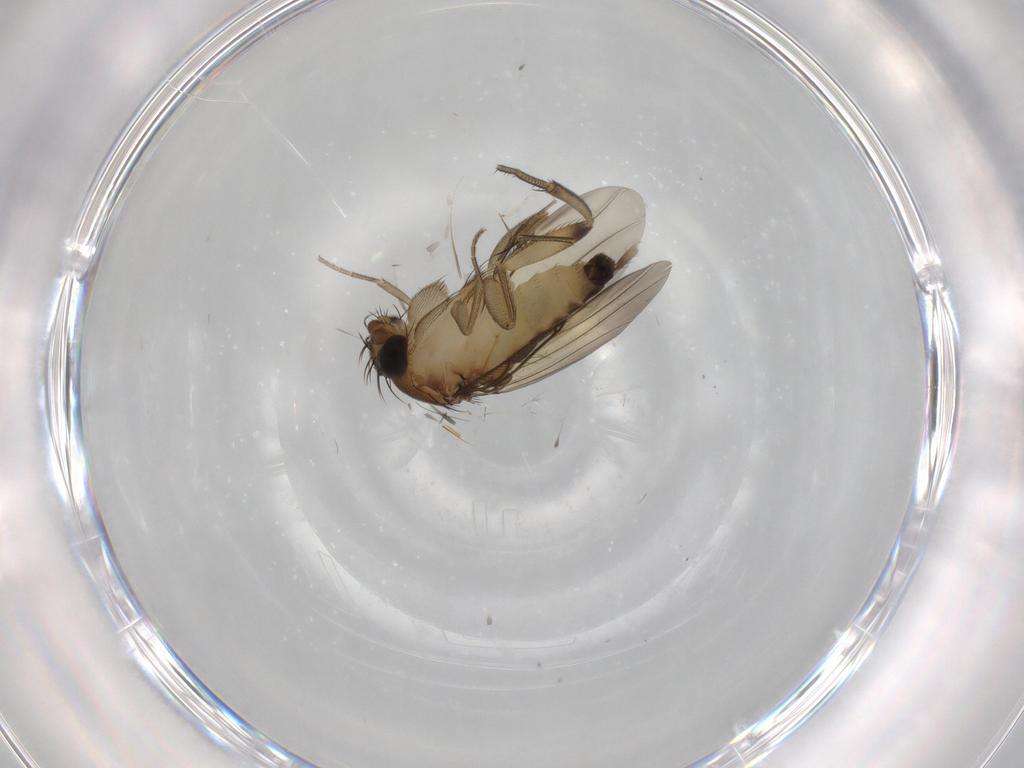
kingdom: Animalia
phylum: Arthropoda
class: Insecta
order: Diptera
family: Phoridae
